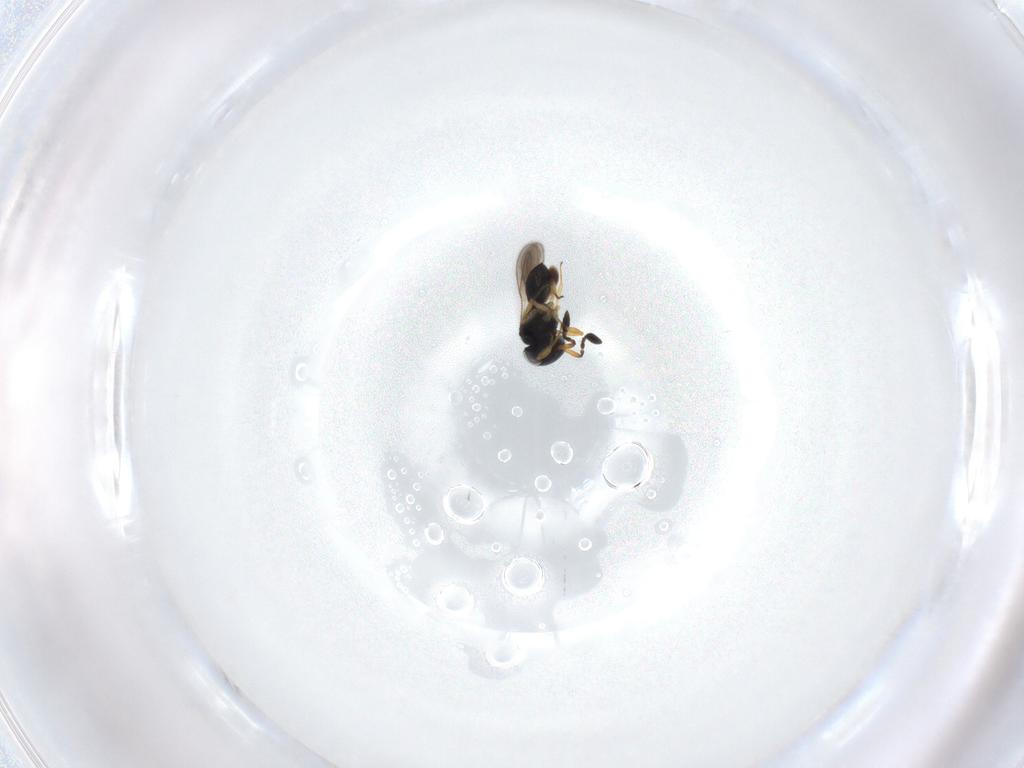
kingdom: Animalia
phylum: Arthropoda
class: Insecta
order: Hymenoptera
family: Scelionidae
